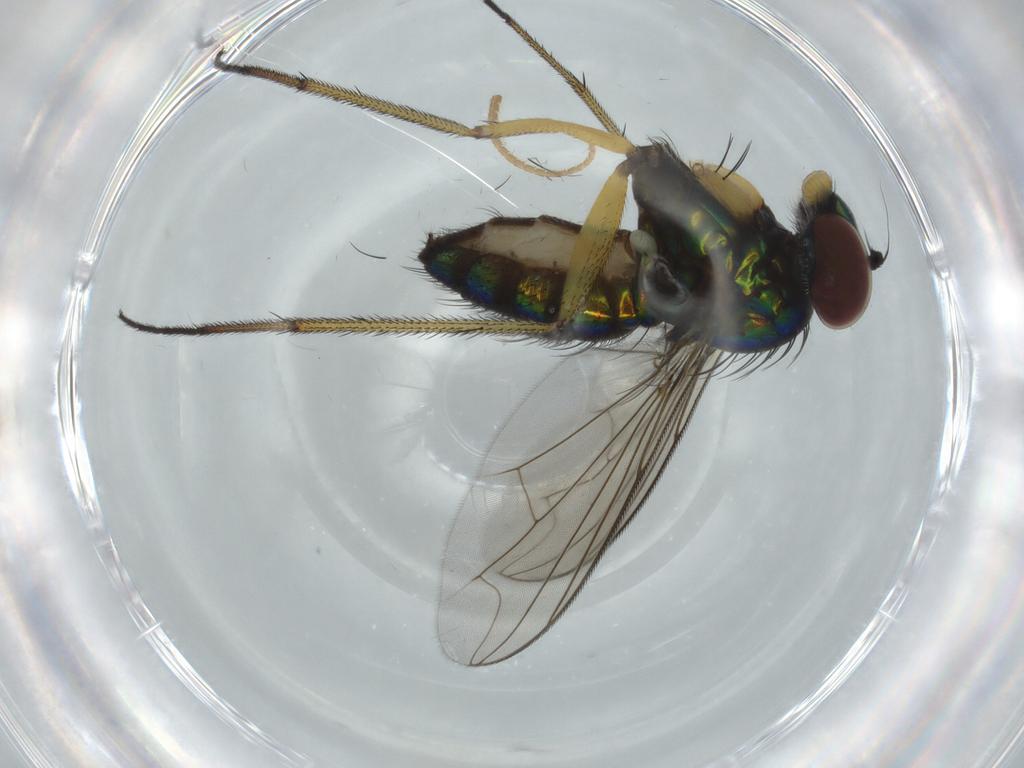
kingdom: Animalia
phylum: Arthropoda
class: Insecta
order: Diptera
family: Dolichopodidae
